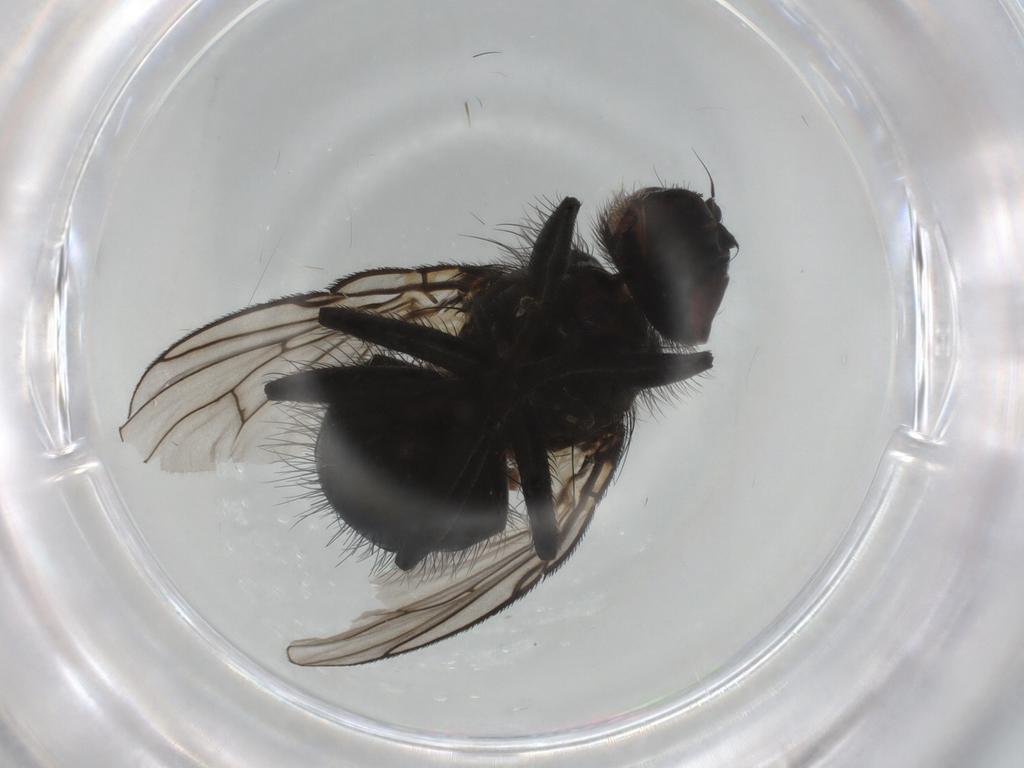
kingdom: Animalia
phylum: Arthropoda
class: Insecta
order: Diptera
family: Muscidae
